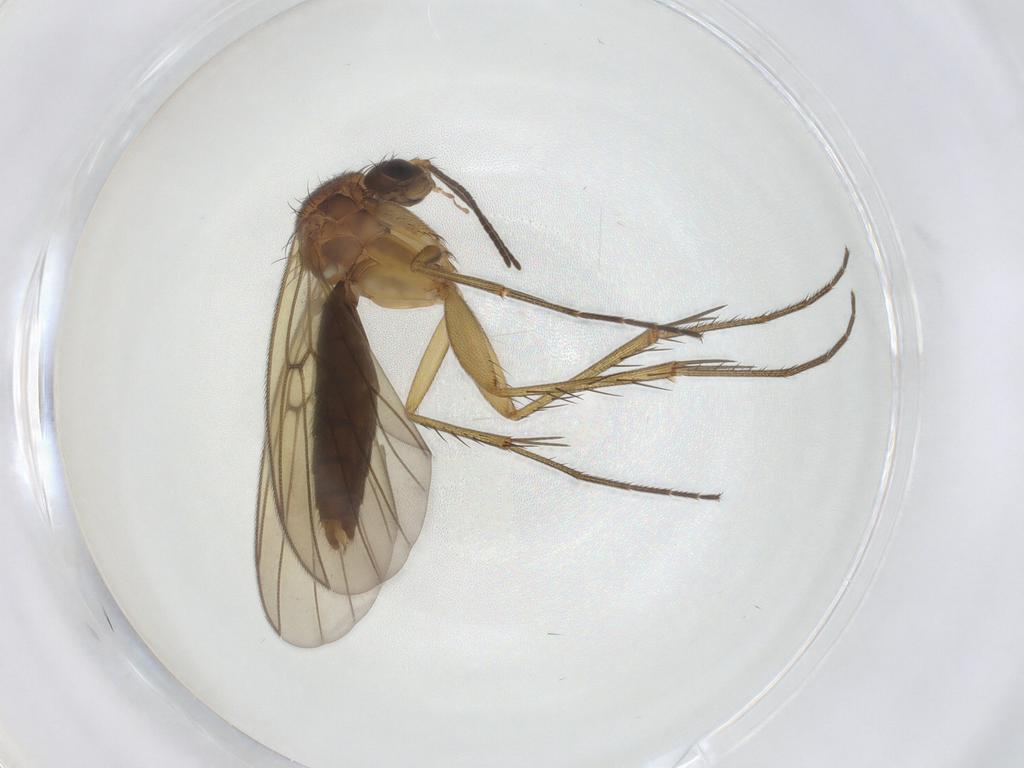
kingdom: Animalia
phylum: Arthropoda
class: Insecta
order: Diptera
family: Mycetophilidae
